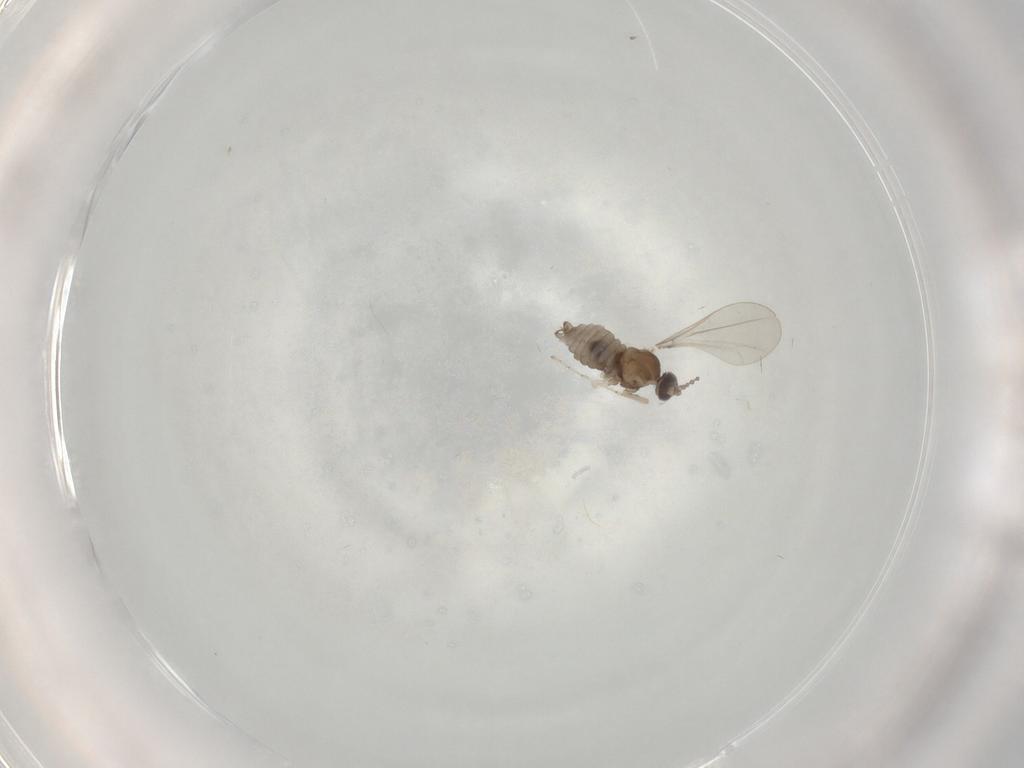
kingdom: Animalia
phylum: Arthropoda
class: Insecta
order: Diptera
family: Cecidomyiidae
